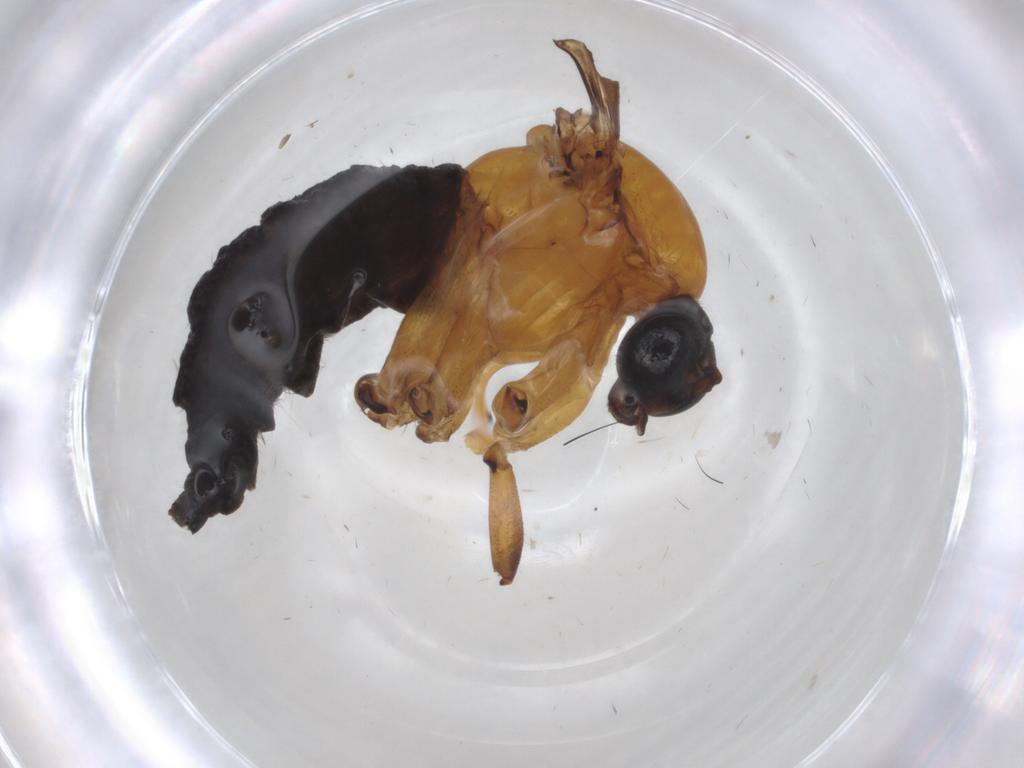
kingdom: Animalia
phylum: Arthropoda
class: Insecta
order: Diptera
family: Sciaridae
